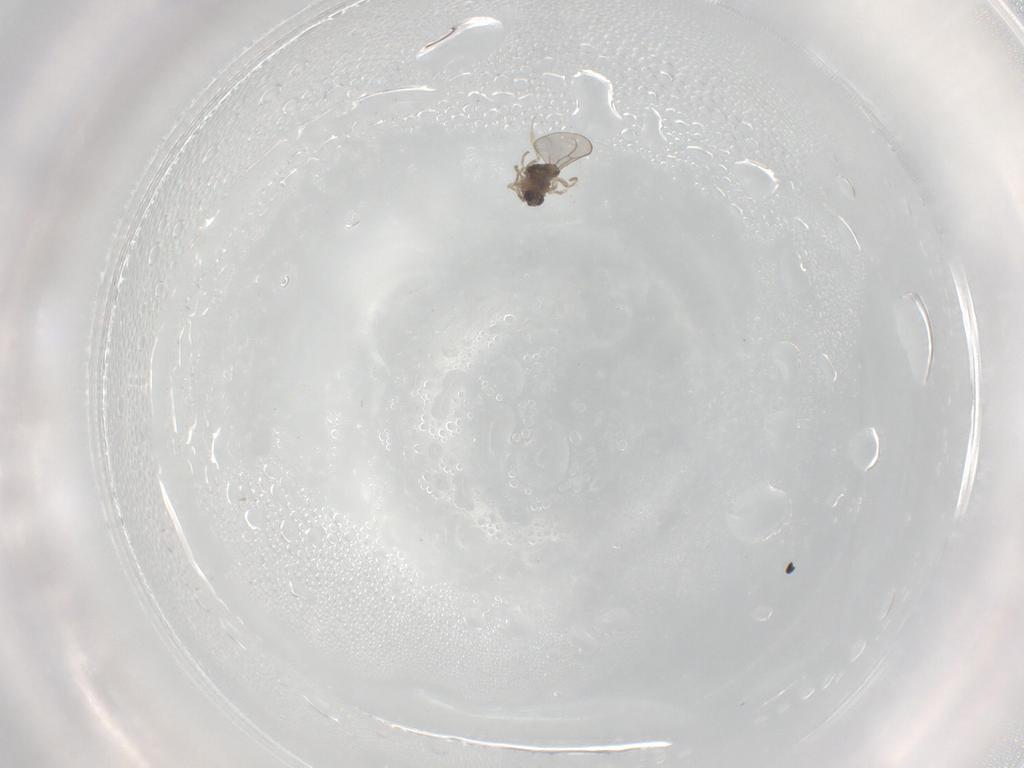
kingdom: Animalia
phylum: Arthropoda
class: Insecta
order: Diptera
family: Cecidomyiidae
